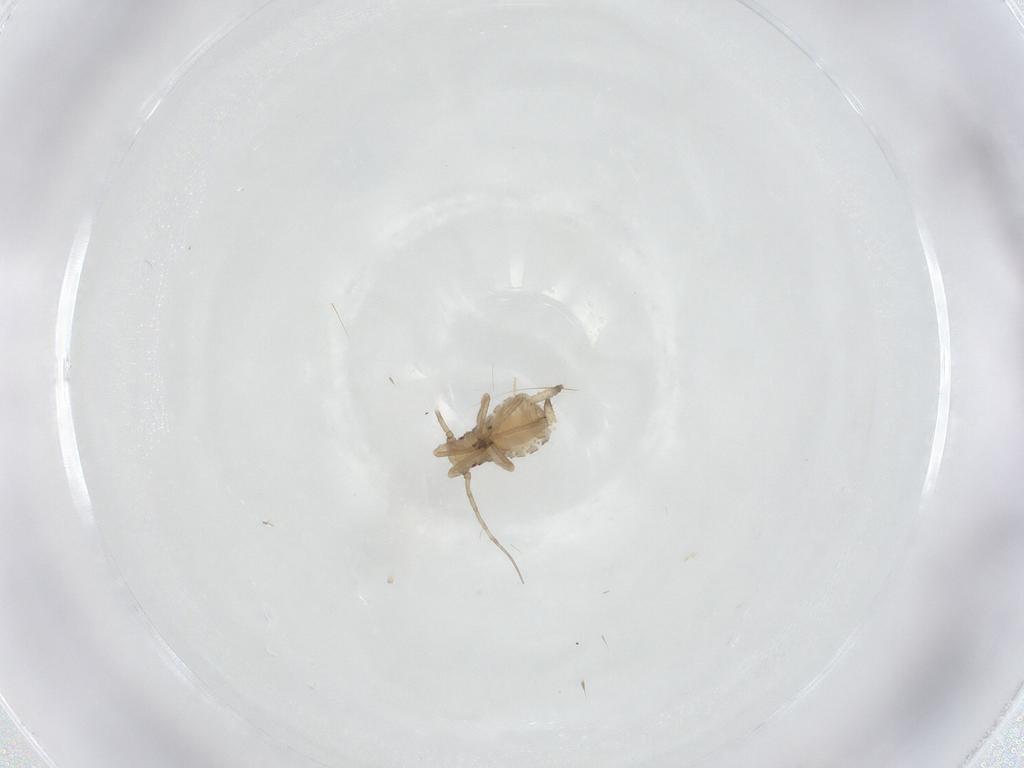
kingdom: Animalia
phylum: Arthropoda
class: Insecta
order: Hemiptera
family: Aphididae
